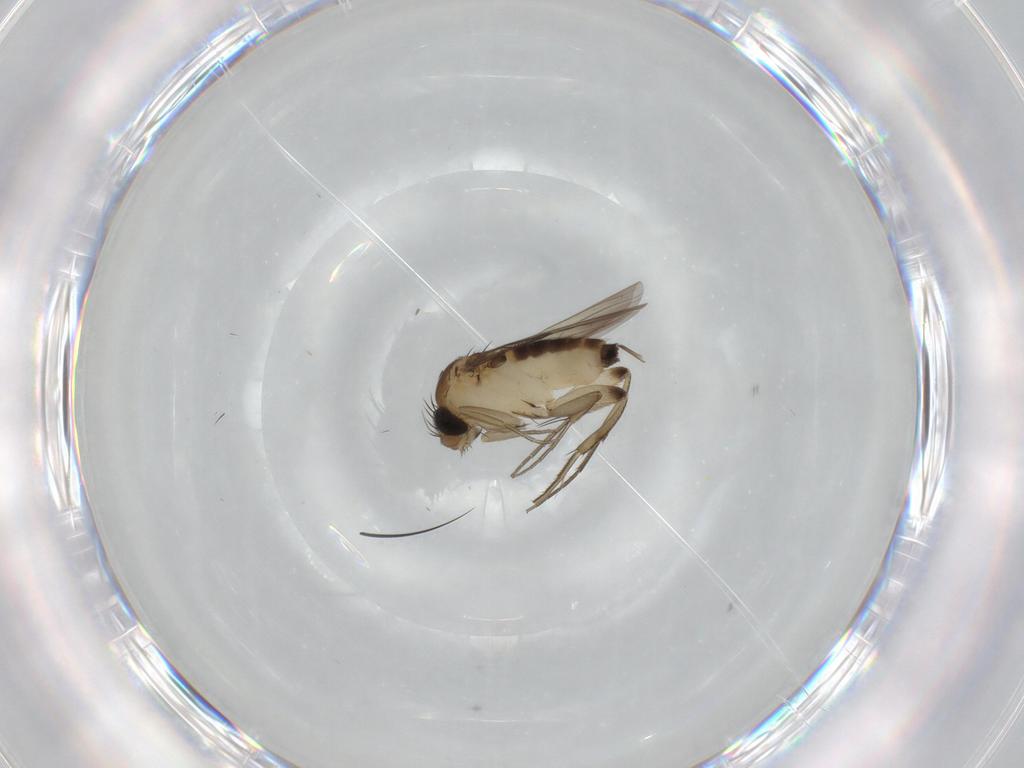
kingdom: Animalia
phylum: Arthropoda
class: Insecta
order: Diptera
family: Phoridae
